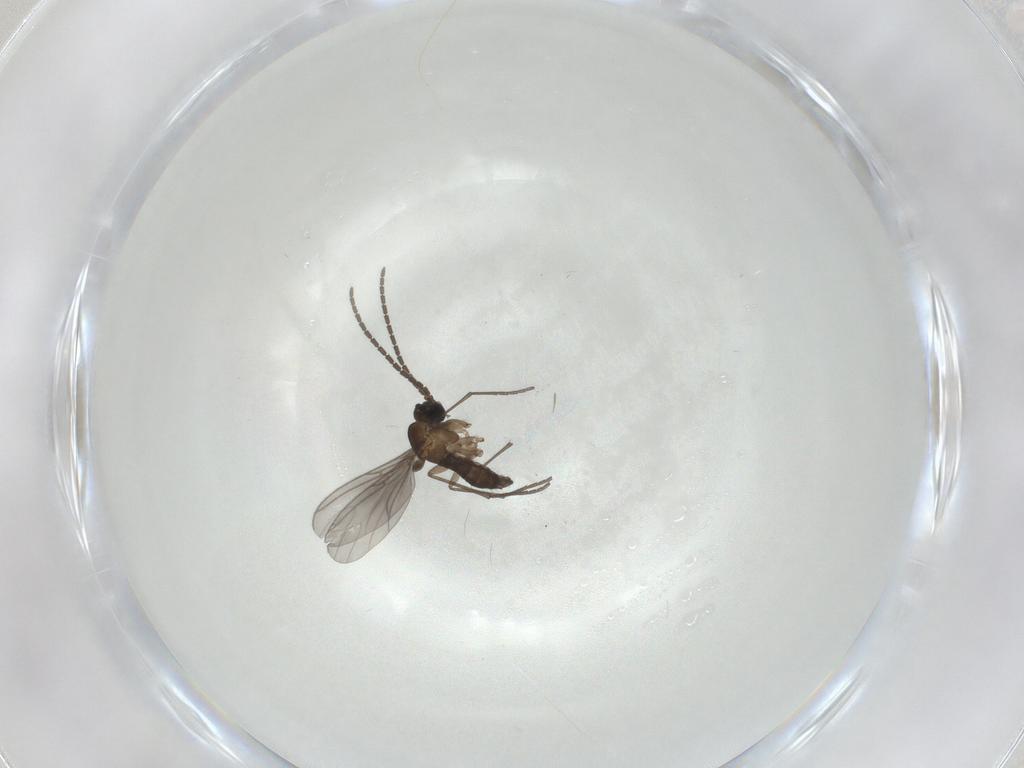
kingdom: Animalia
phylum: Arthropoda
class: Insecta
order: Diptera
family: Sciaridae
